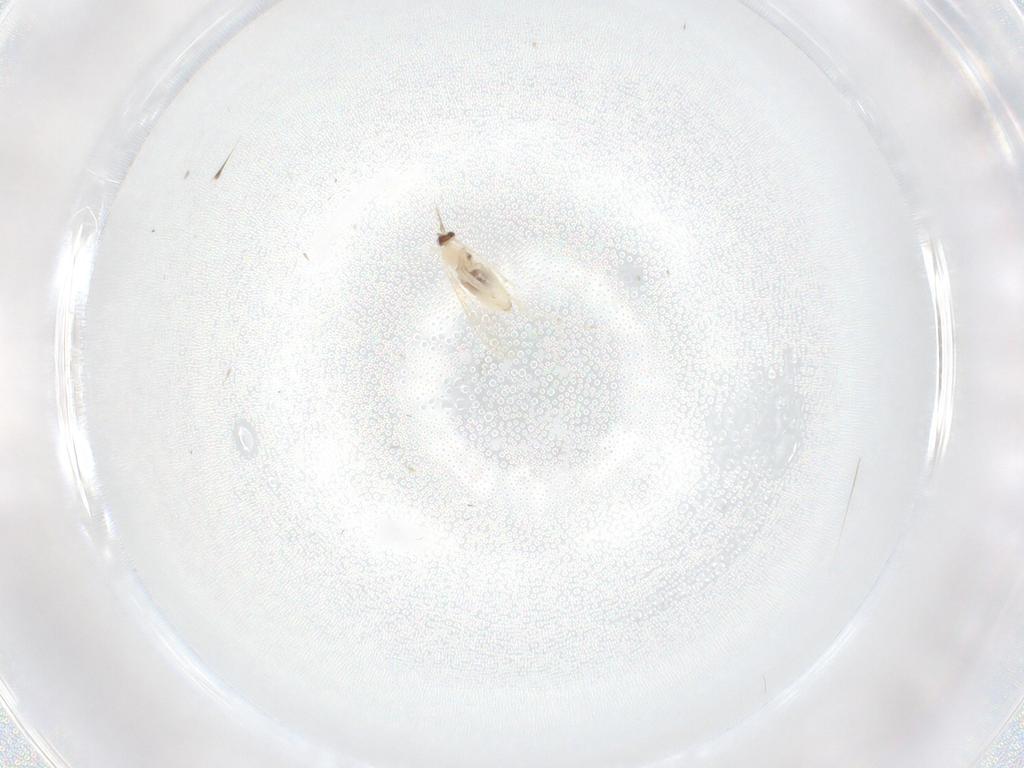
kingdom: Animalia
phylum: Arthropoda
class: Insecta
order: Diptera
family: Cecidomyiidae
